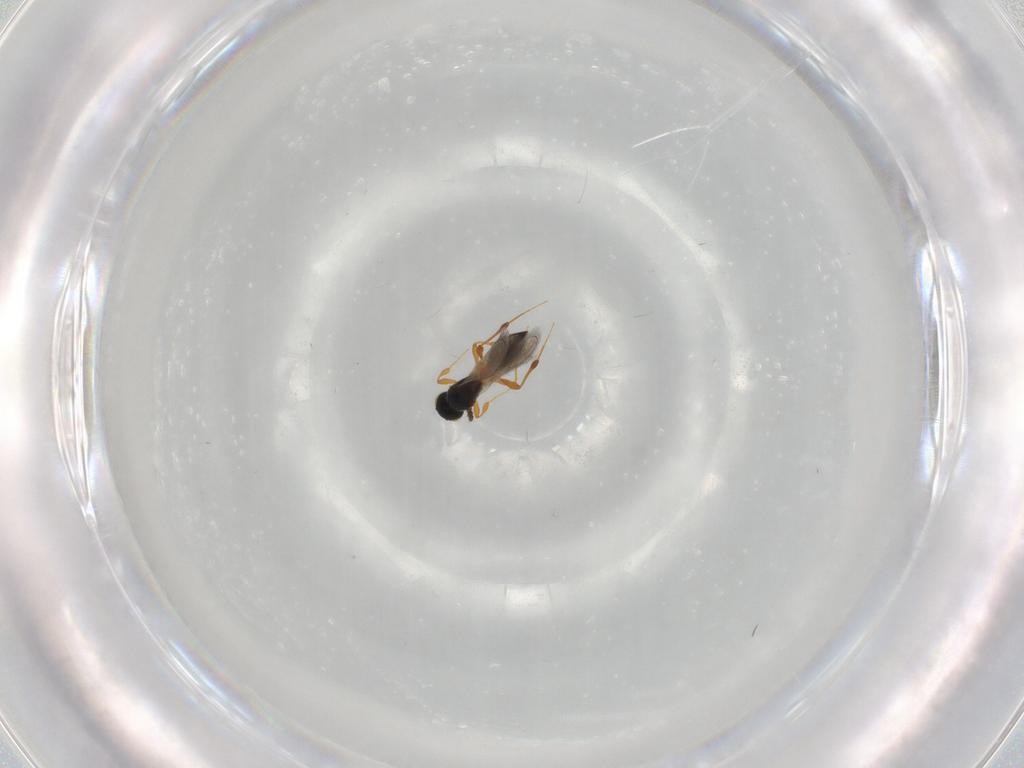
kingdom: Animalia
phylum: Arthropoda
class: Insecta
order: Hymenoptera
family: Platygastridae
